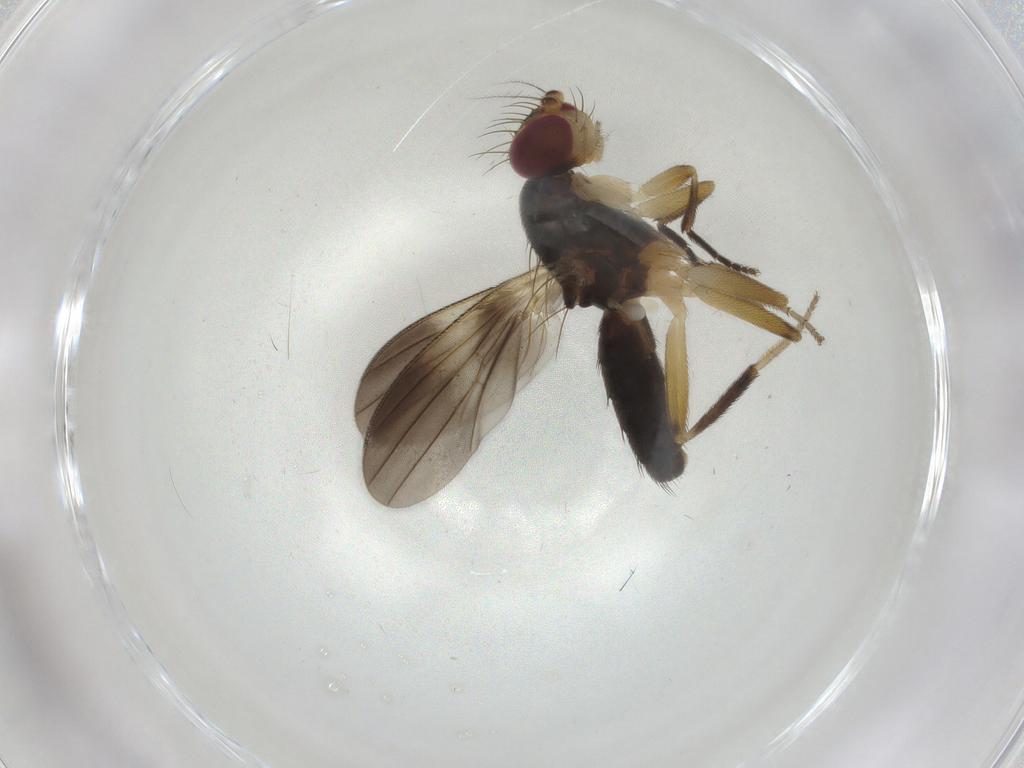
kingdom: Animalia
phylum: Arthropoda
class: Insecta
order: Diptera
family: Clusiidae
